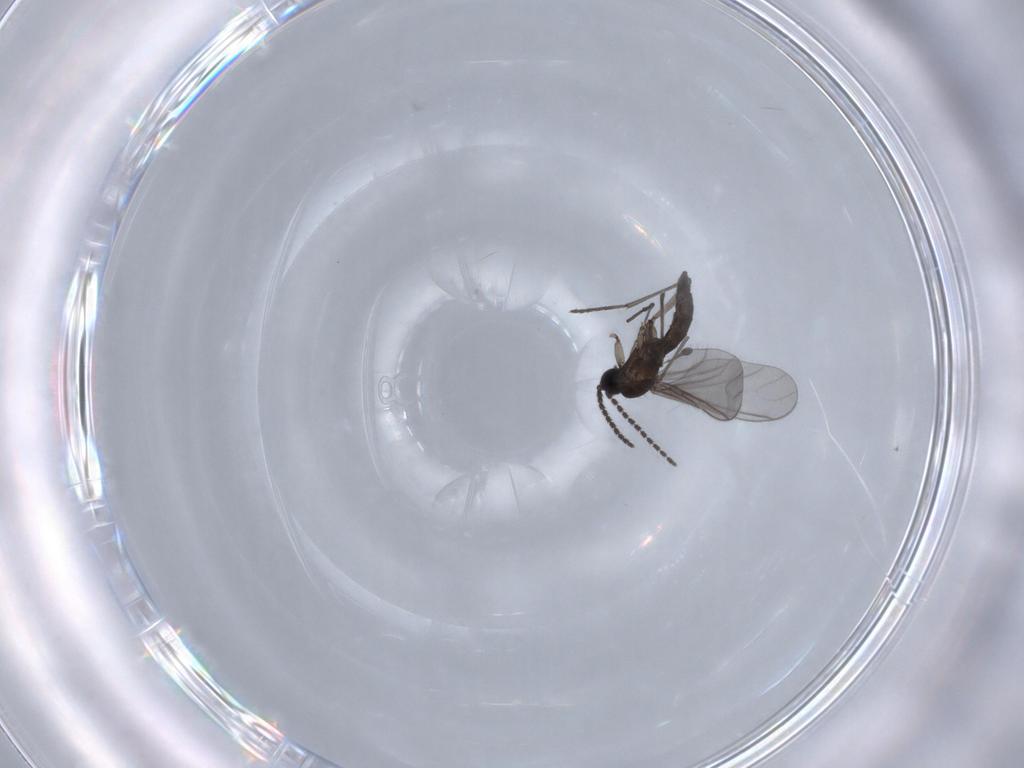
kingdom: Animalia
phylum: Arthropoda
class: Insecta
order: Diptera
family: Sciaridae
